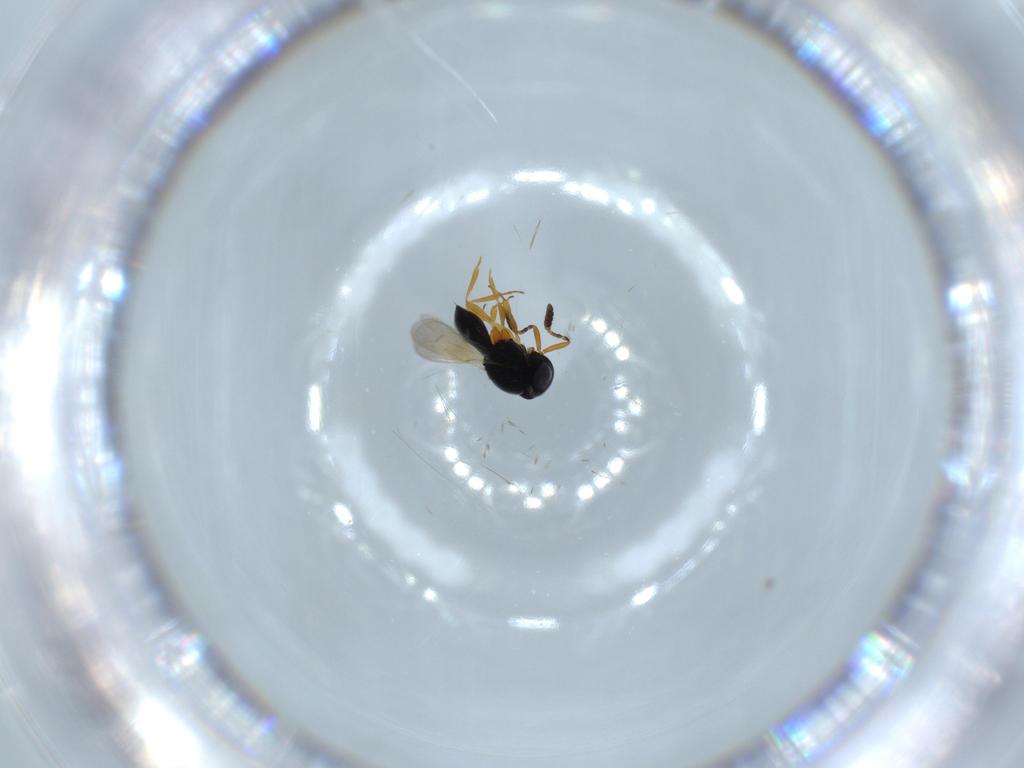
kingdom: Animalia
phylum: Arthropoda
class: Insecta
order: Hymenoptera
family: Scelionidae
